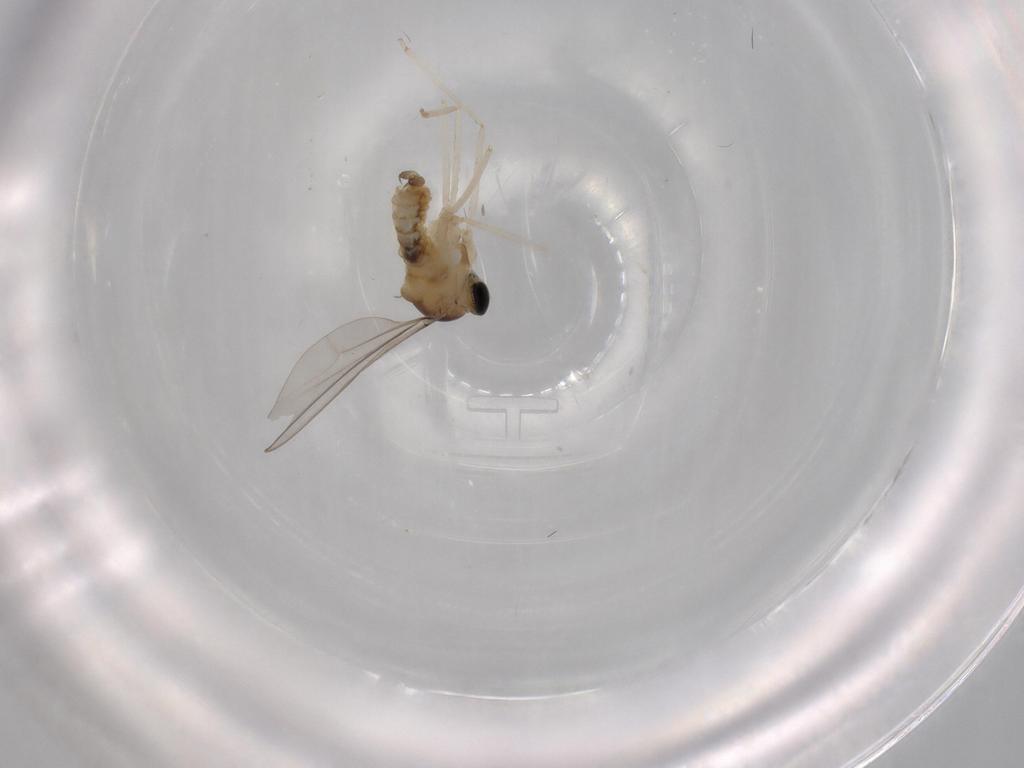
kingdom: Animalia
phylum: Arthropoda
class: Insecta
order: Diptera
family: Cecidomyiidae
